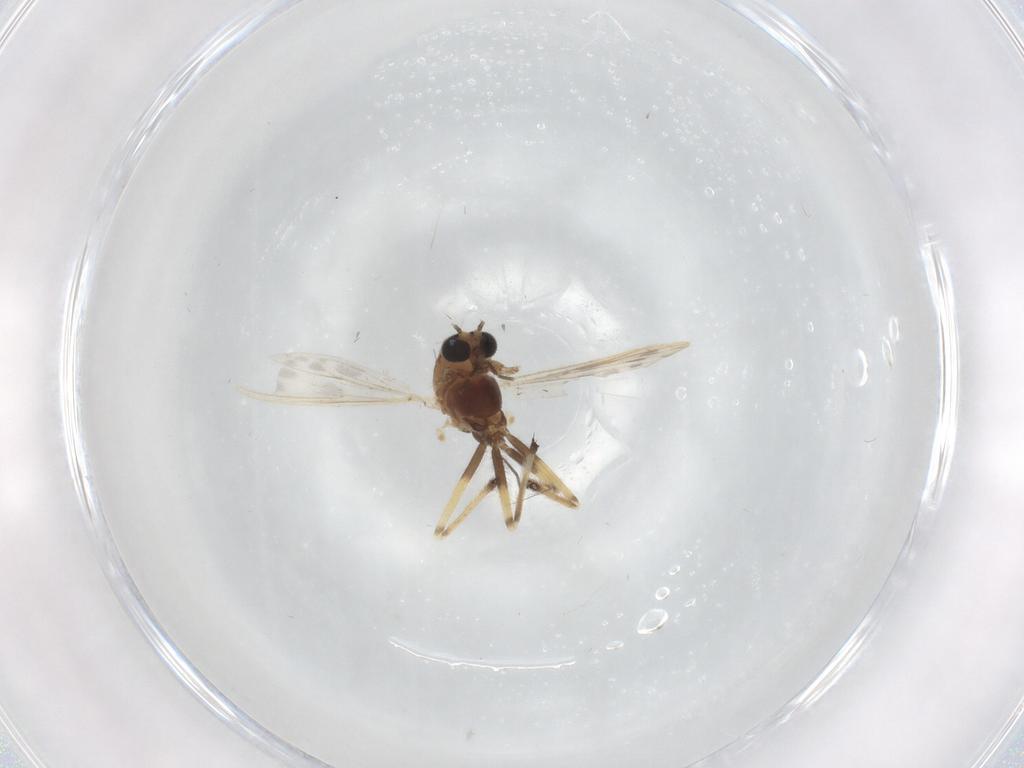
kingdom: Animalia
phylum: Arthropoda
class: Insecta
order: Diptera
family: Chironomidae
